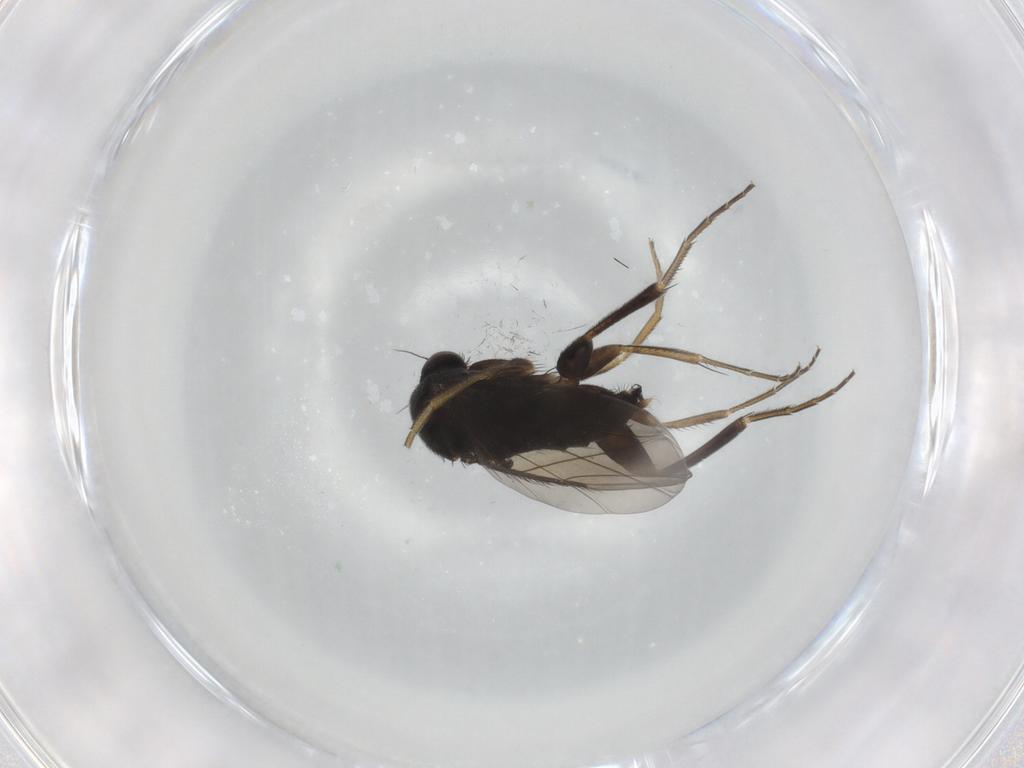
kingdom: Animalia
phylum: Arthropoda
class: Insecta
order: Diptera
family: Phoridae
